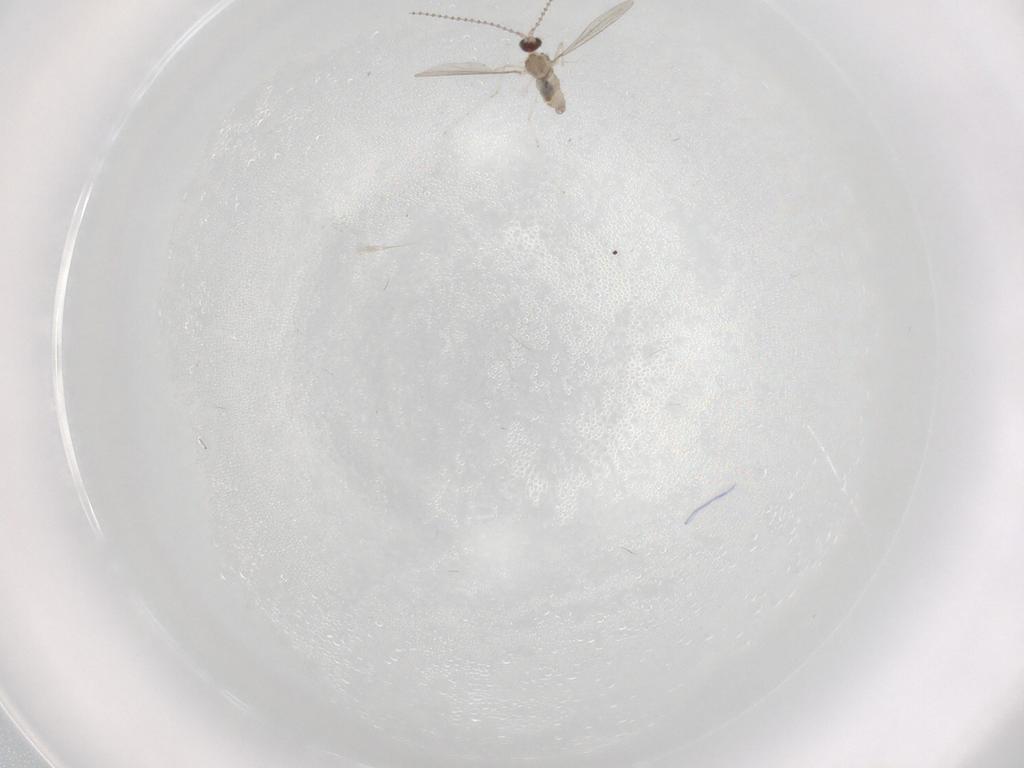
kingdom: Animalia
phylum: Arthropoda
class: Insecta
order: Diptera
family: Cecidomyiidae
